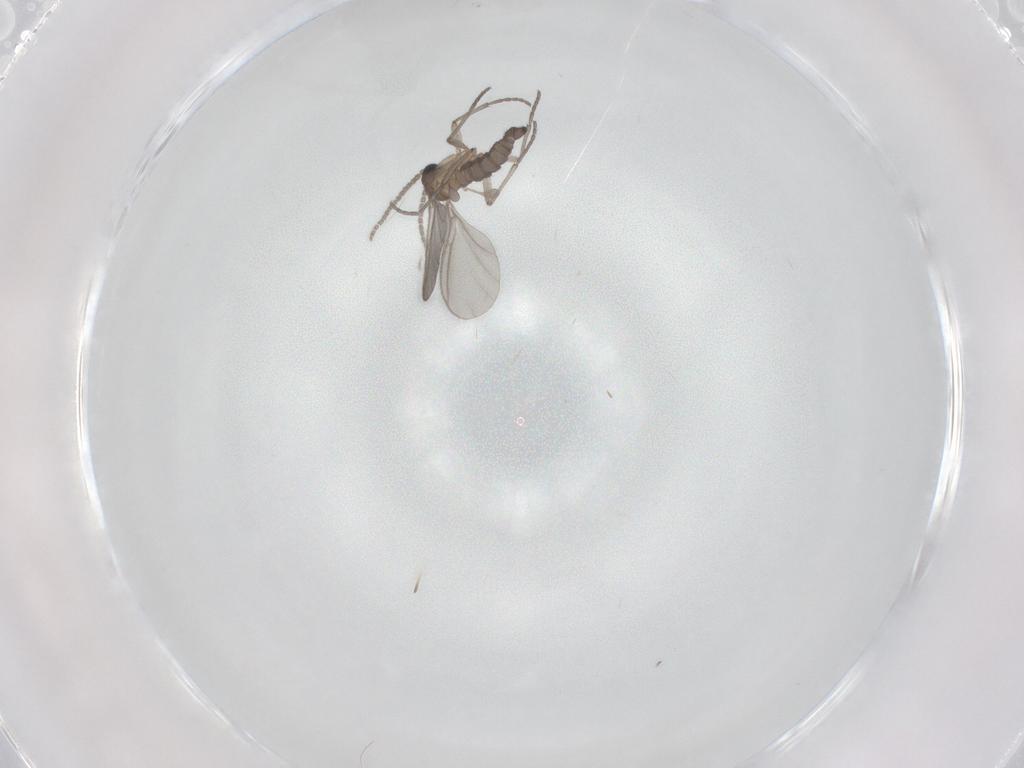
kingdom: Animalia
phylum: Arthropoda
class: Insecta
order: Diptera
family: Sciaridae
